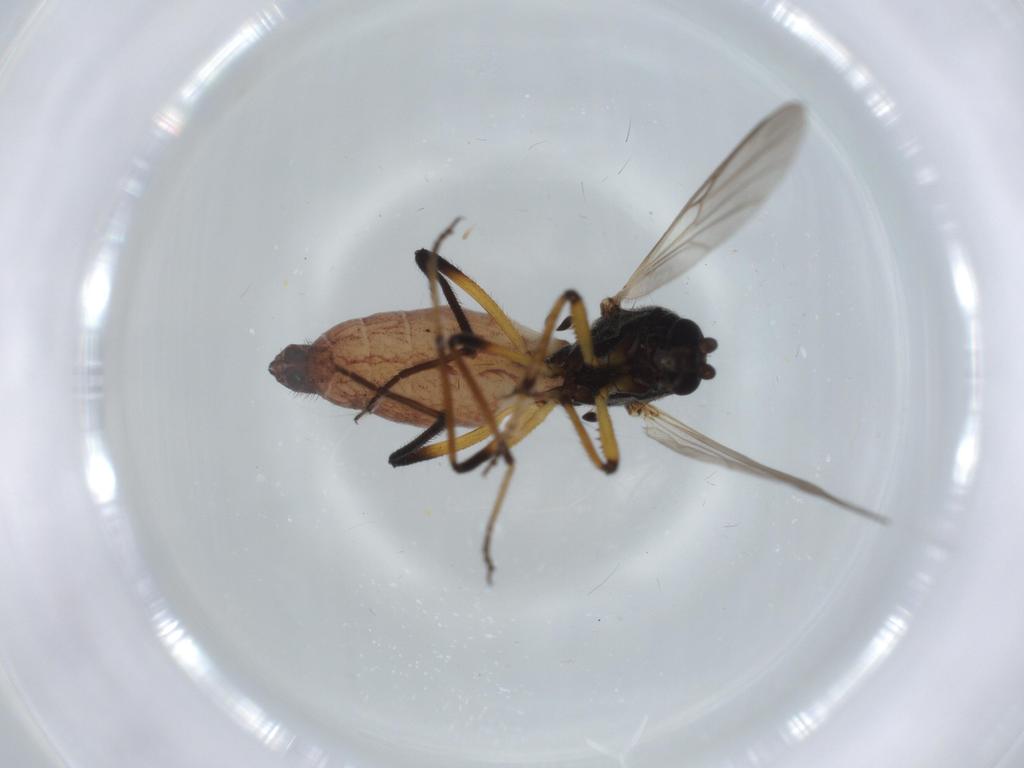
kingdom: Animalia
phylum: Arthropoda
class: Insecta
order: Diptera
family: Ceratopogonidae
